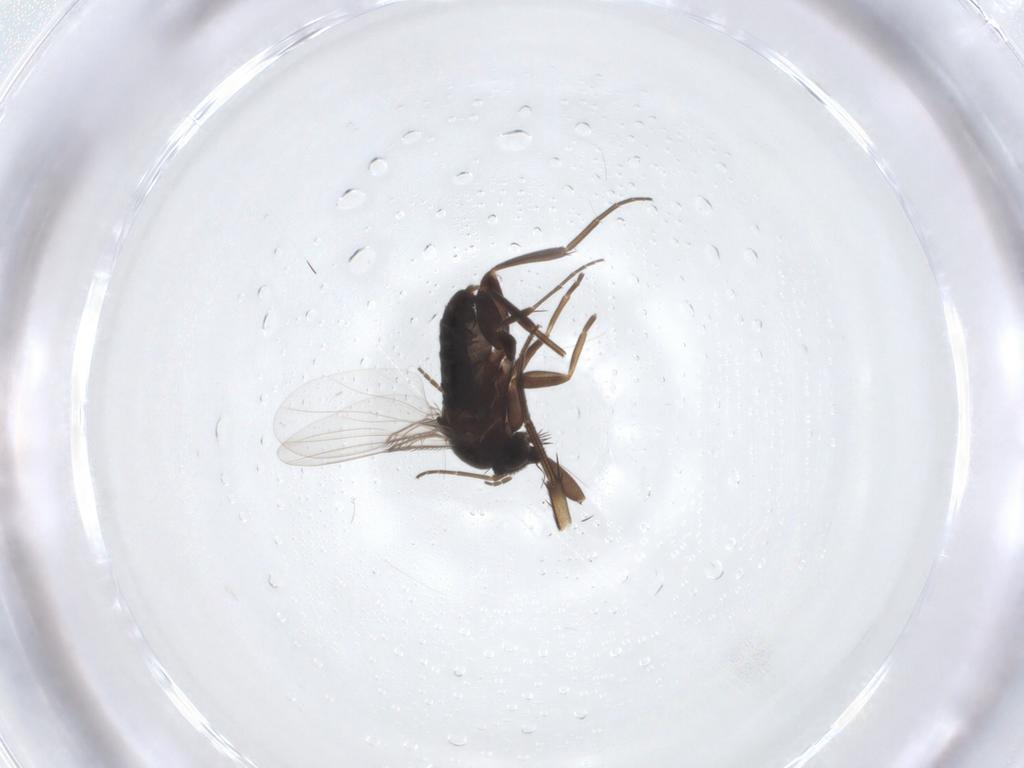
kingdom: Animalia
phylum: Arthropoda
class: Insecta
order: Diptera
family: Phoridae
